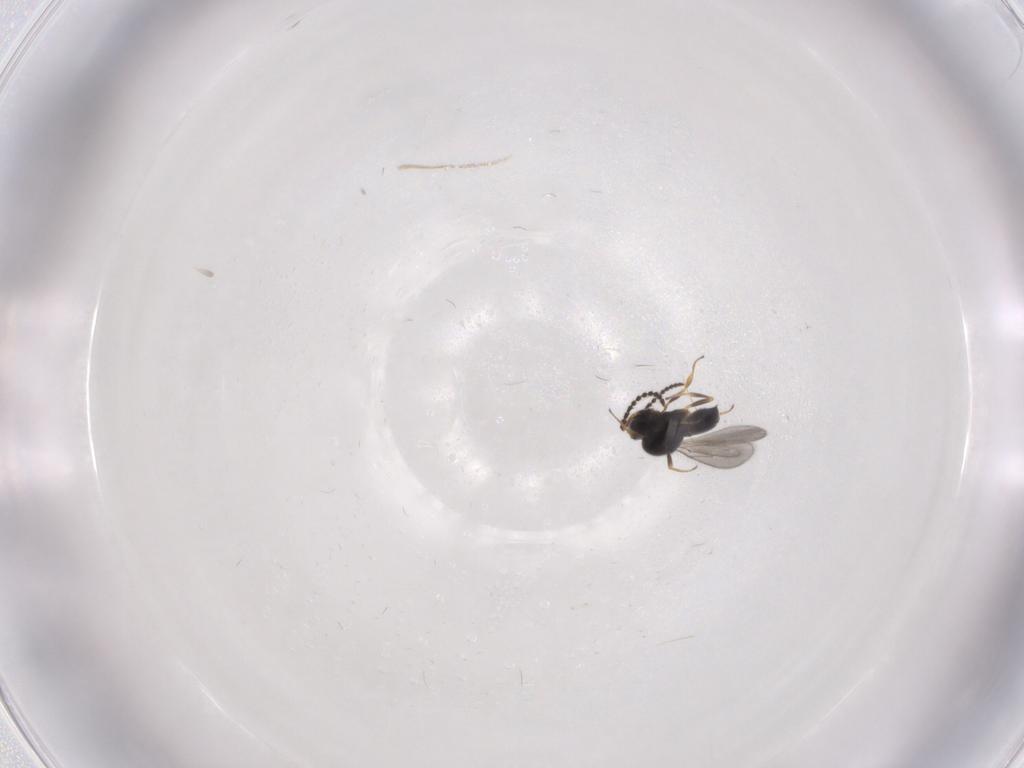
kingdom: Animalia
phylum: Arthropoda
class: Insecta
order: Hymenoptera
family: Scelionidae
